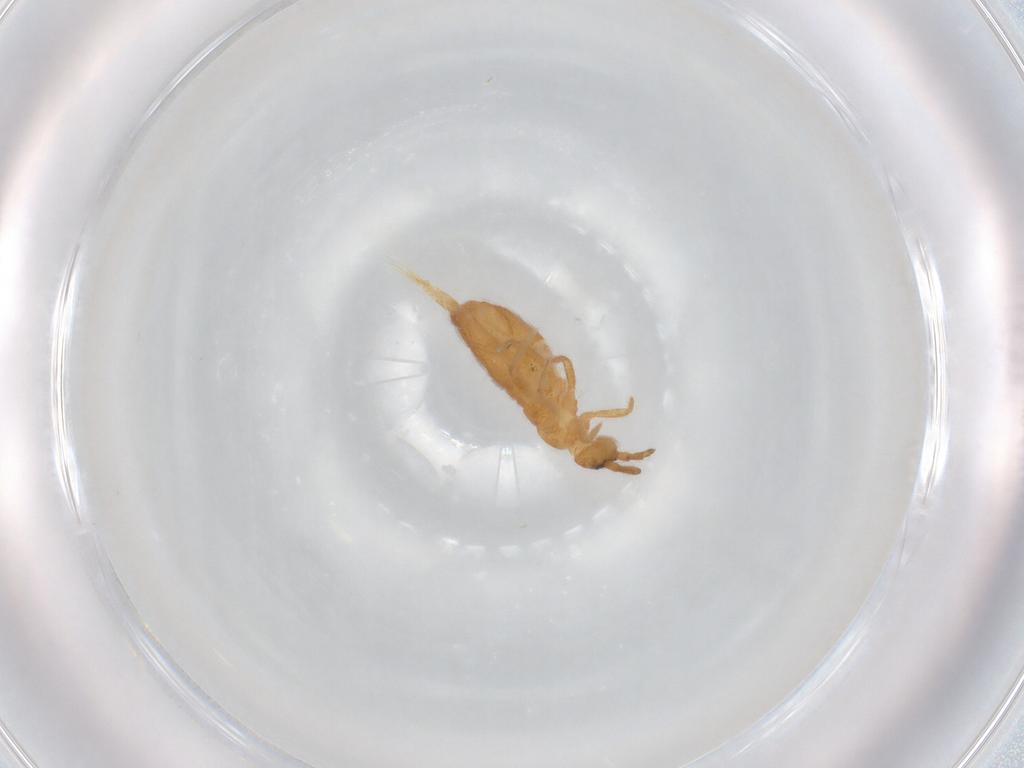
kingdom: Animalia
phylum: Arthropoda
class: Collembola
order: Entomobryomorpha
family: Entomobryidae
